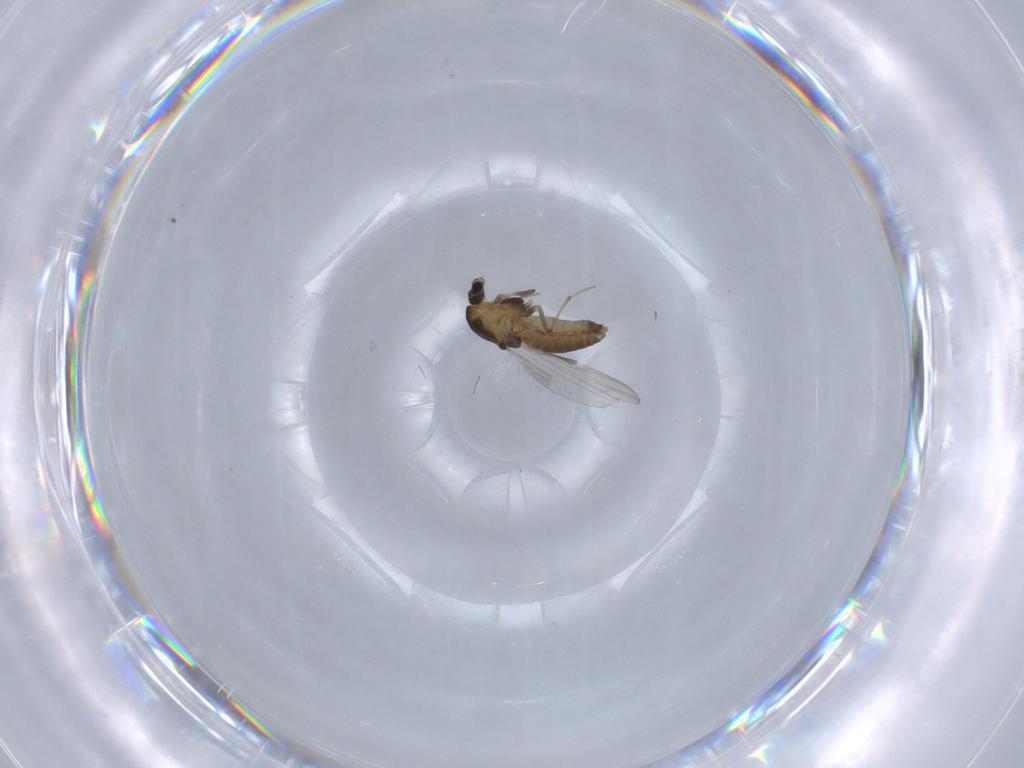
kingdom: Animalia
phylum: Arthropoda
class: Insecta
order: Diptera
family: Chironomidae
